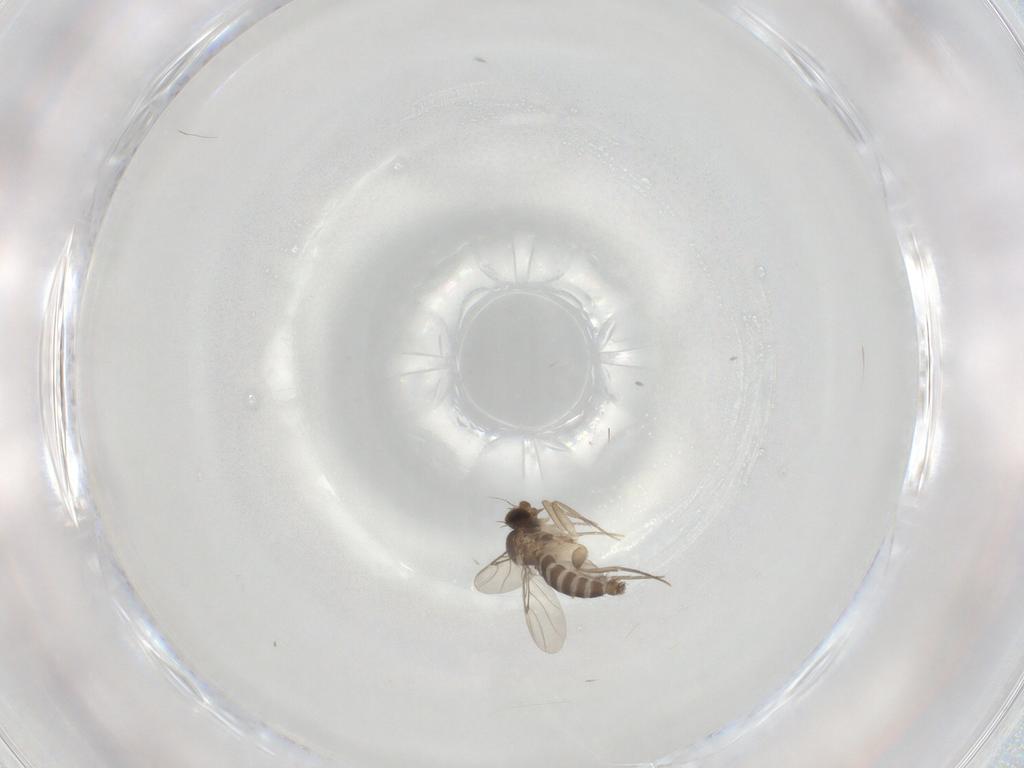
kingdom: Animalia
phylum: Arthropoda
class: Insecta
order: Diptera
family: Phoridae
